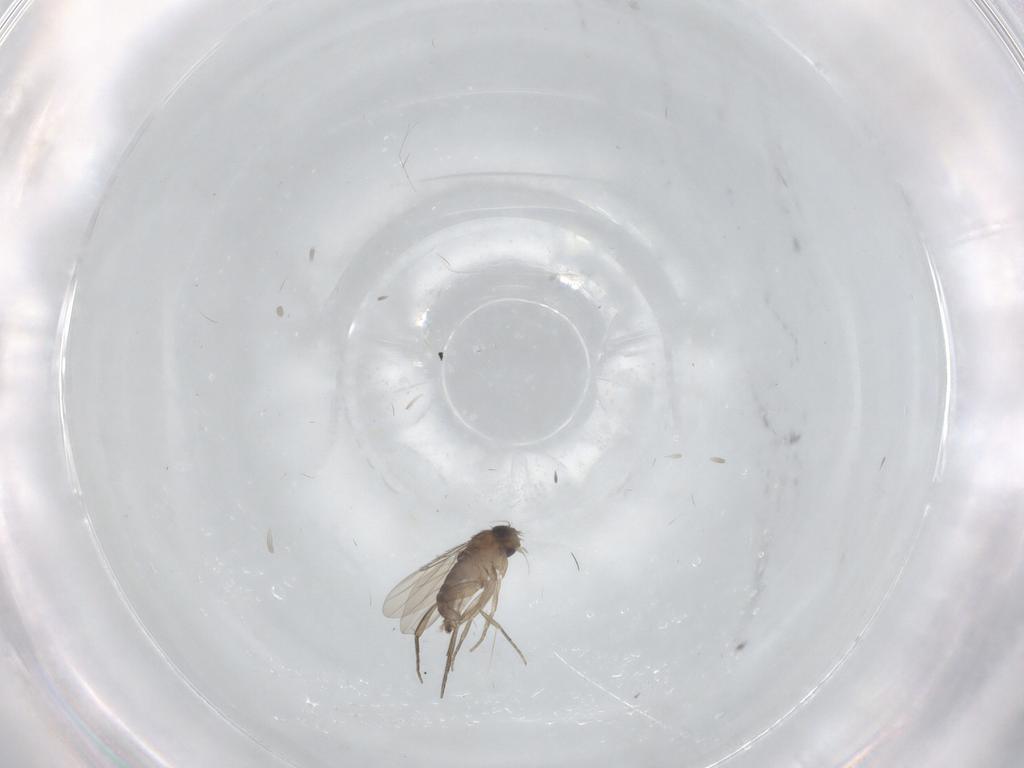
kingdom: Animalia
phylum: Arthropoda
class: Insecta
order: Diptera
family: Phoridae
